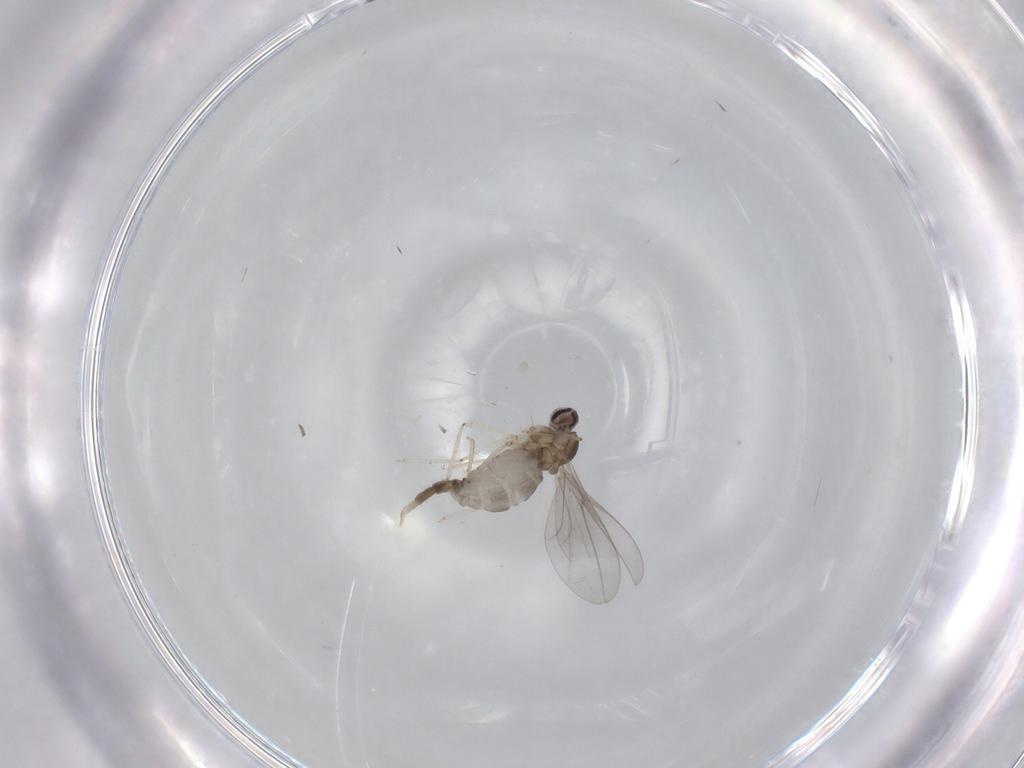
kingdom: Animalia
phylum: Arthropoda
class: Insecta
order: Diptera
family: Cecidomyiidae
